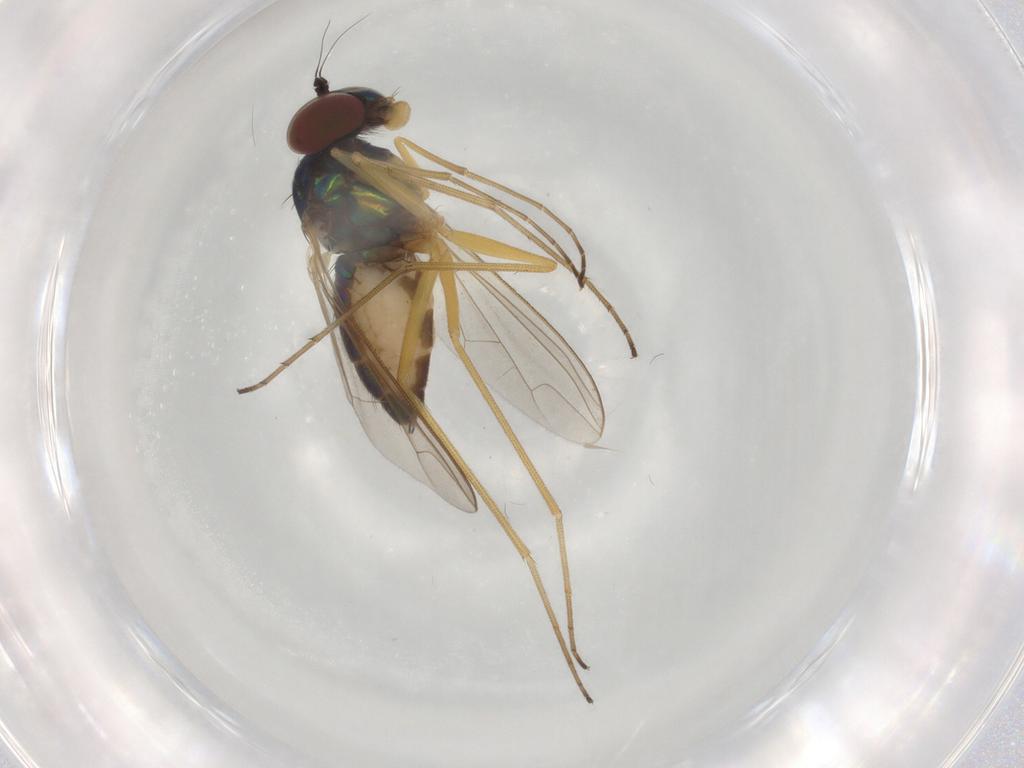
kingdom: Animalia
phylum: Arthropoda
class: Insecta
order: Diptera
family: Dolichopodidae
